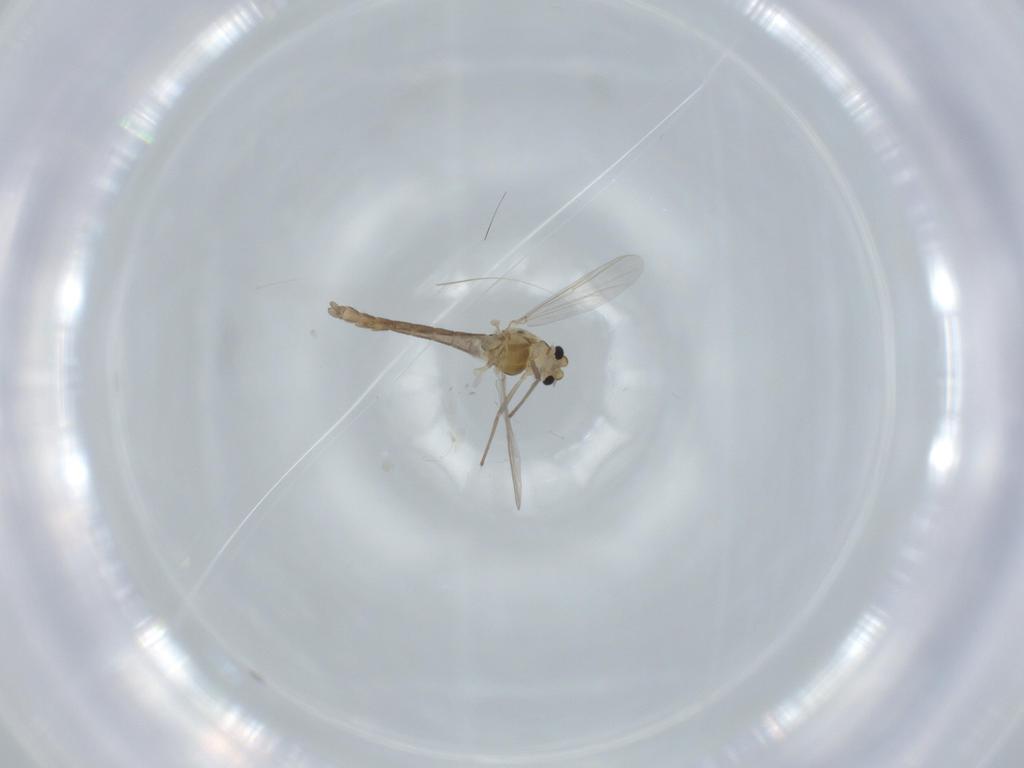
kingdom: Animalia
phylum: Arthropoda
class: Insecta
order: Diptera
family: Chironomidae
